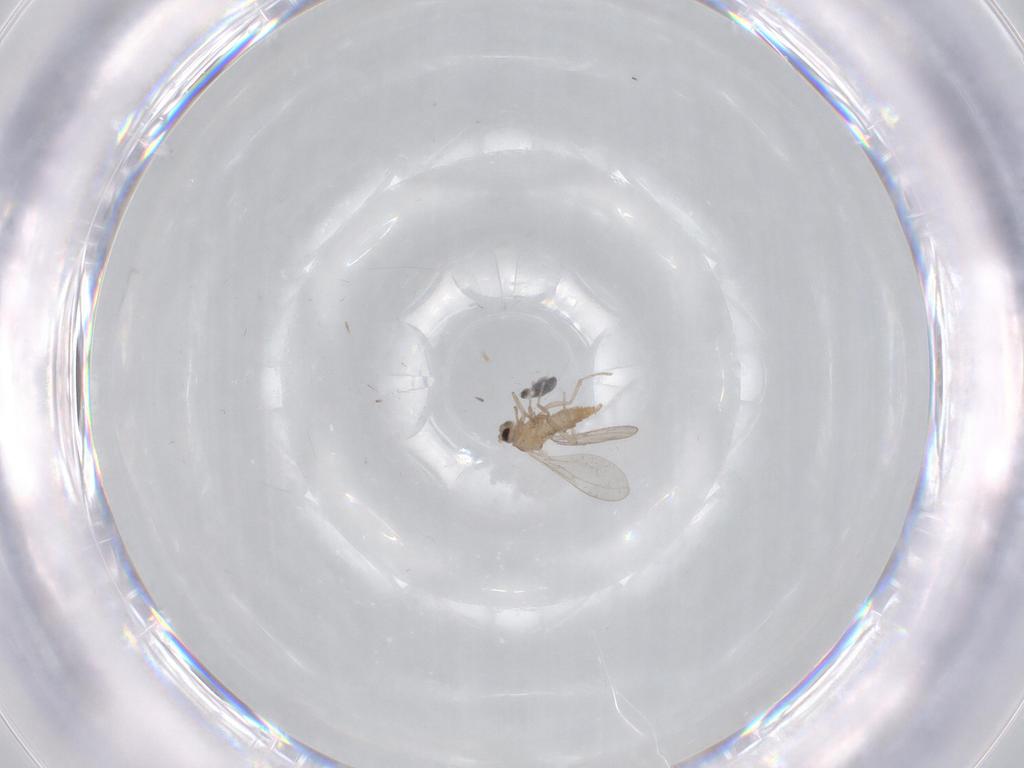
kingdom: Animalia
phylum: Arthropoda
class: Insecta
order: Diptera
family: Cecidomyiidae
